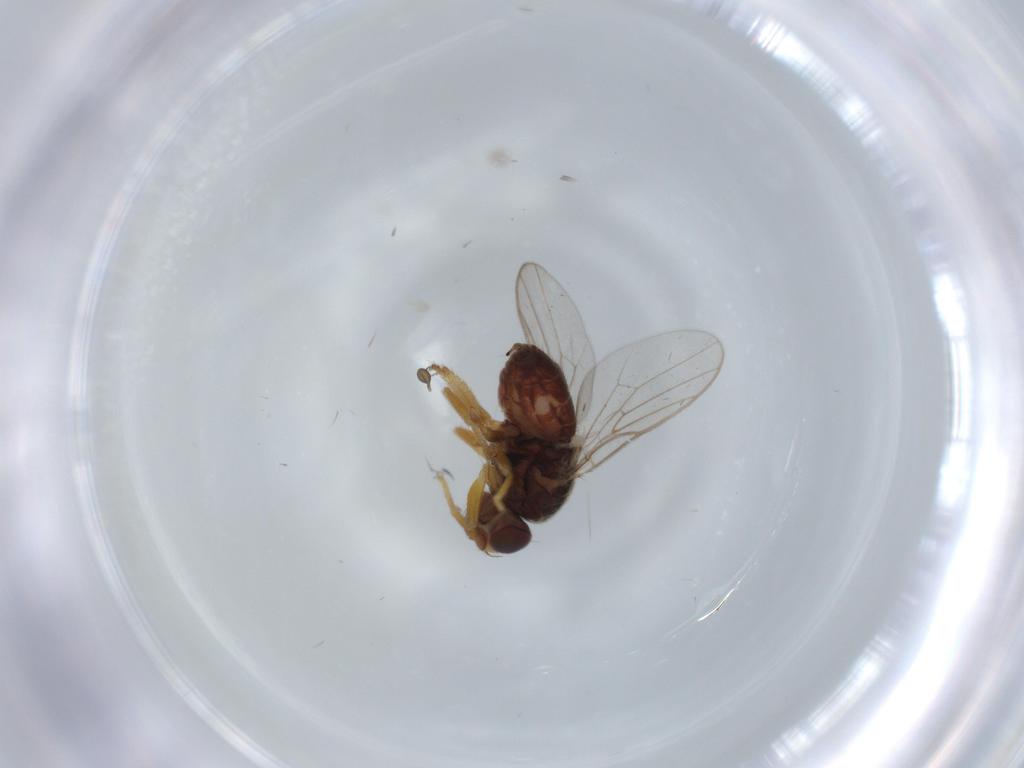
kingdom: Animalia
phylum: Arthropoda
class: Insecta
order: Diptera
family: Chloropidae
